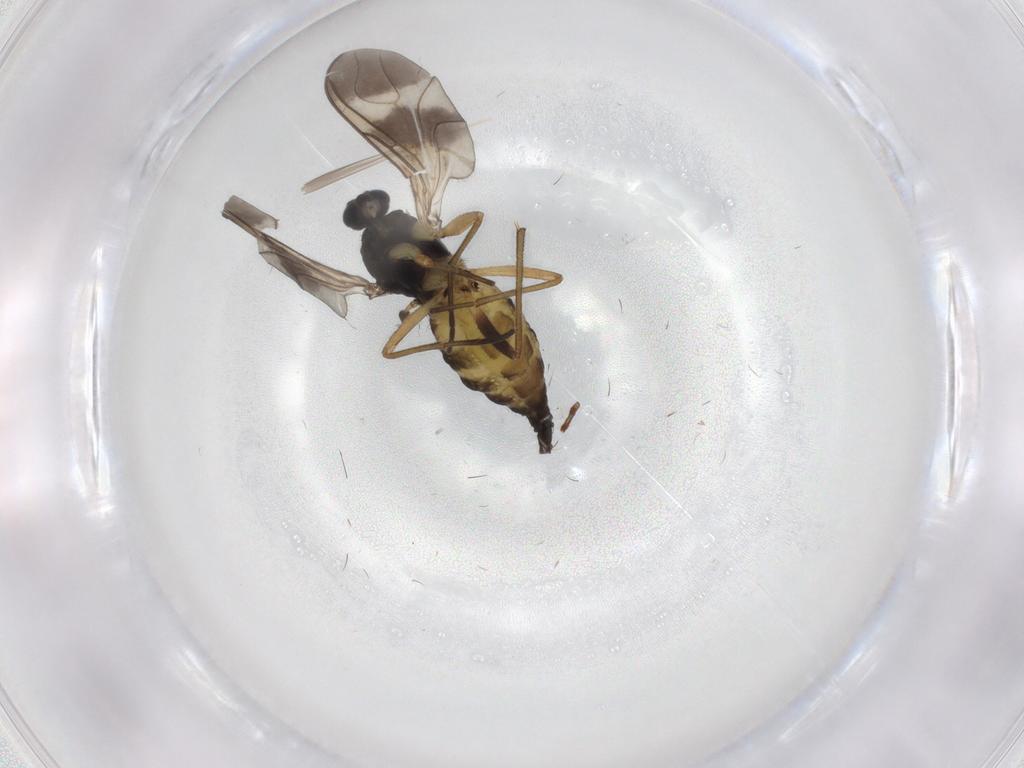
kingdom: Animalia
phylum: Arthropoda
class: Insecta
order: Diptera
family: Sciaridae
